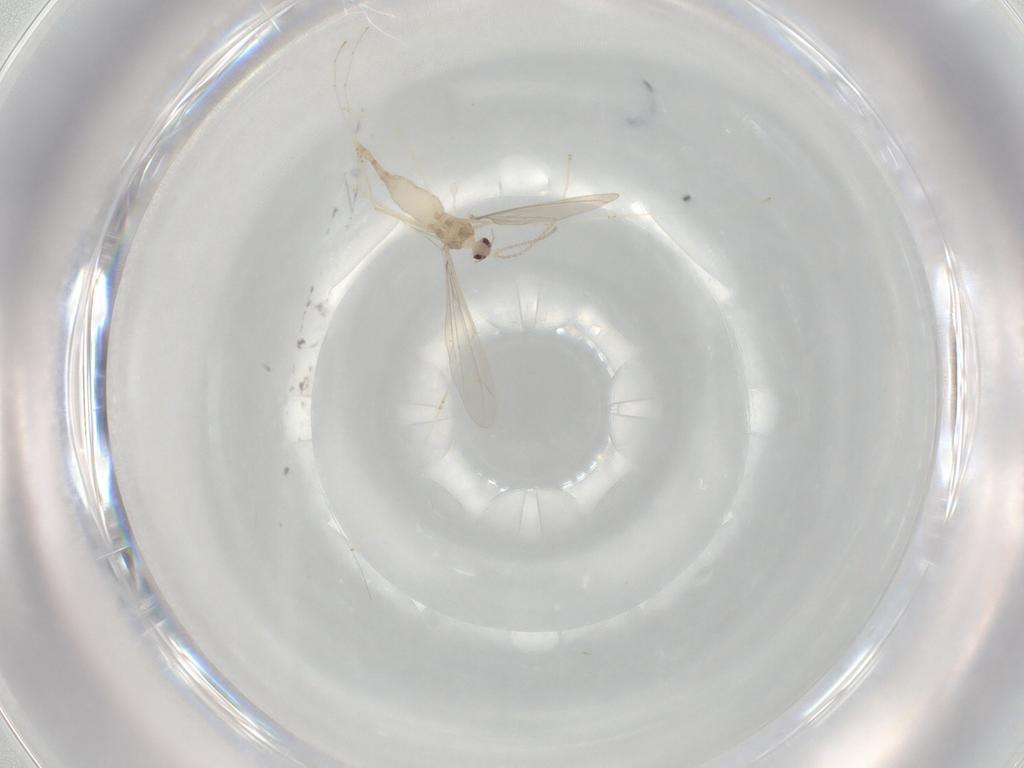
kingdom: Animalia
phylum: Arthropoda
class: Insecta
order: Diptera
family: Cecidomyiidae
